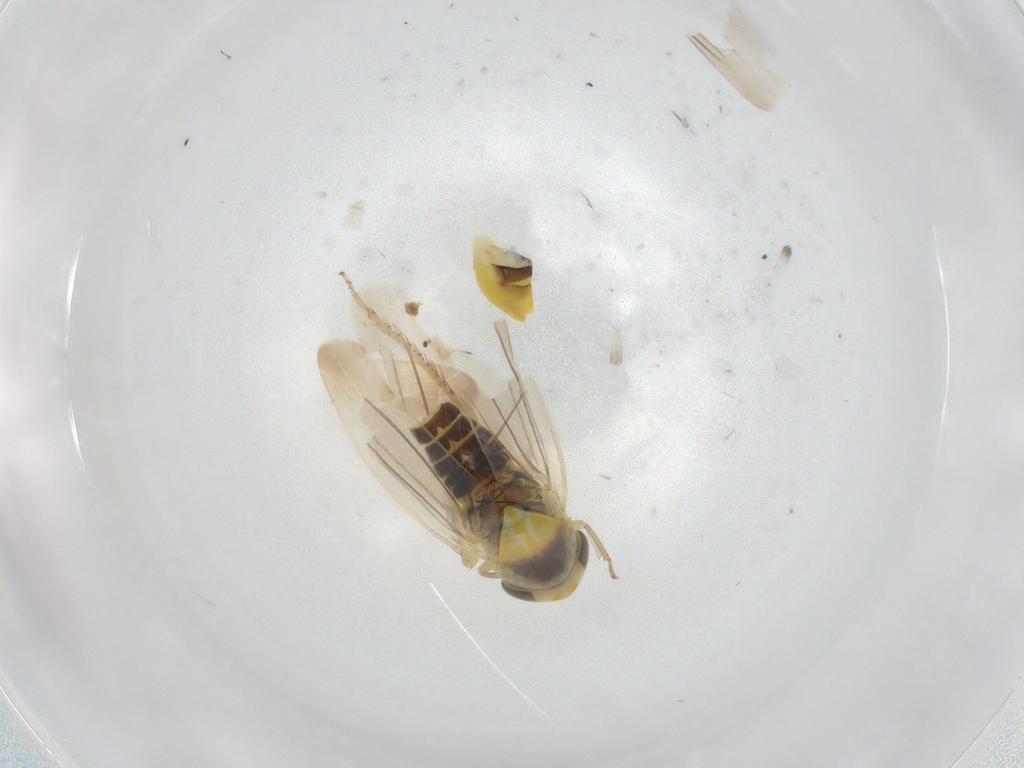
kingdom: Animalia
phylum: Arthropoda
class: Insecta
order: Hemiptera
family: Cicadellidae
